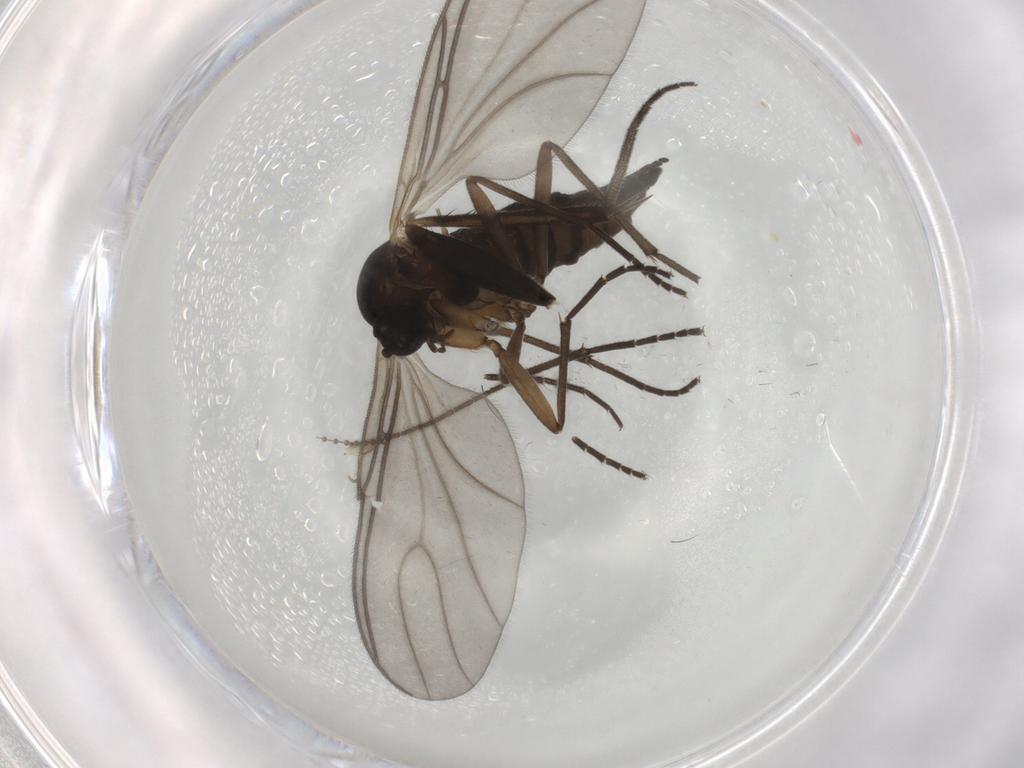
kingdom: Animalia
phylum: Arthropoda
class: Insecta
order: Diptera
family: Sciaridae
